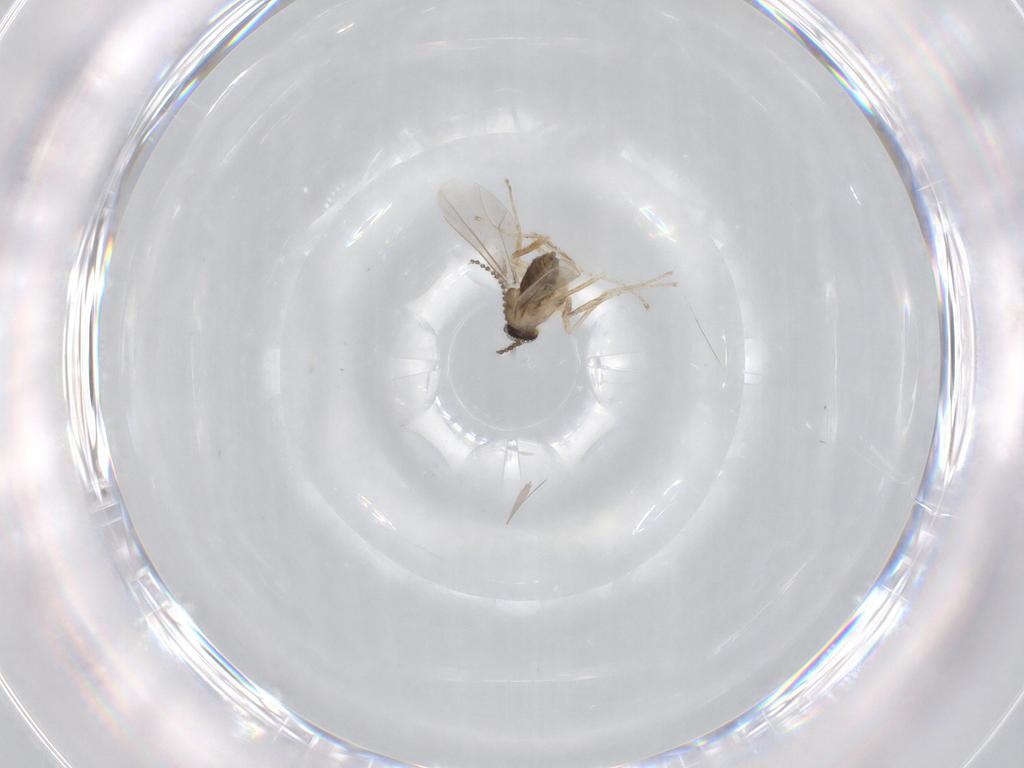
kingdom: Animalia
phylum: Arthropoda
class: Insecta
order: Diptera
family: Cecidomyiidae
